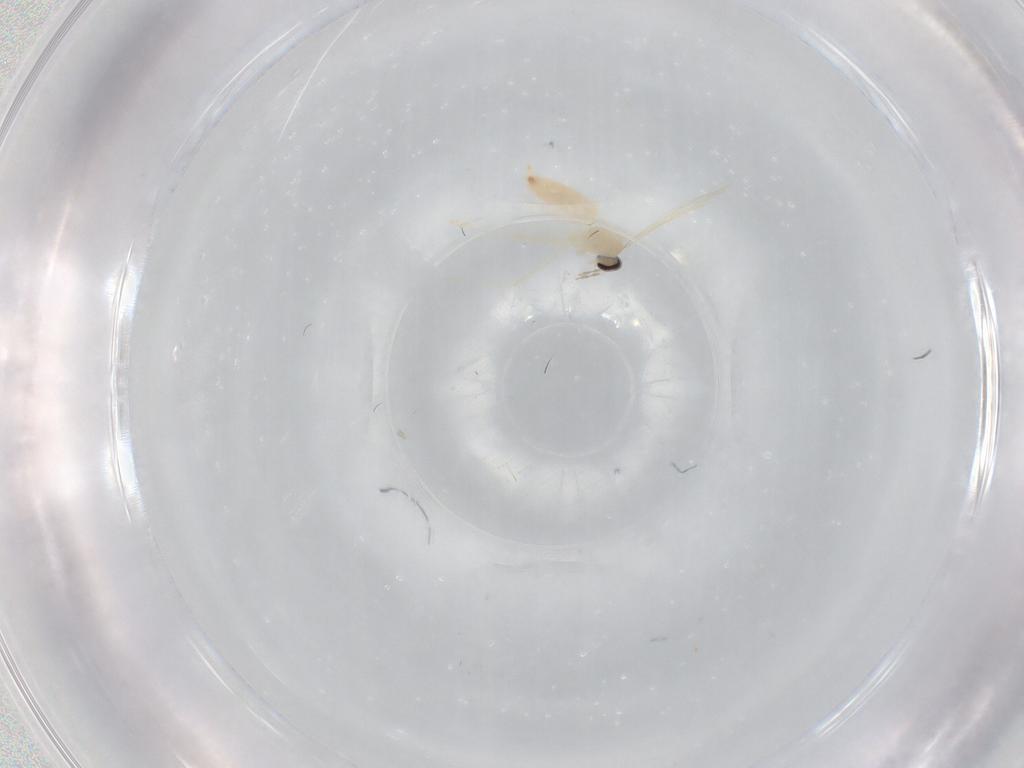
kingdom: Animalia
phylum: Arthropoda
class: Insecta
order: Diptera
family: Cecidomyiidae
